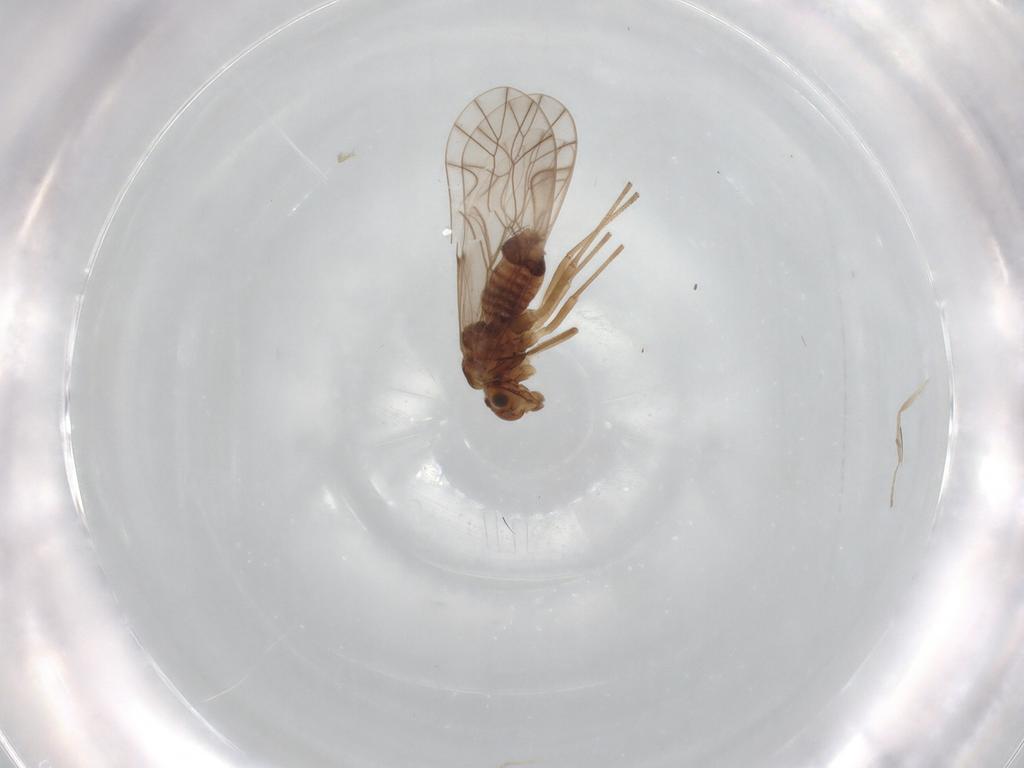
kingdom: Animalia
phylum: Arthropoda
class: Insecta
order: Psocodea
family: Lachesillidae
